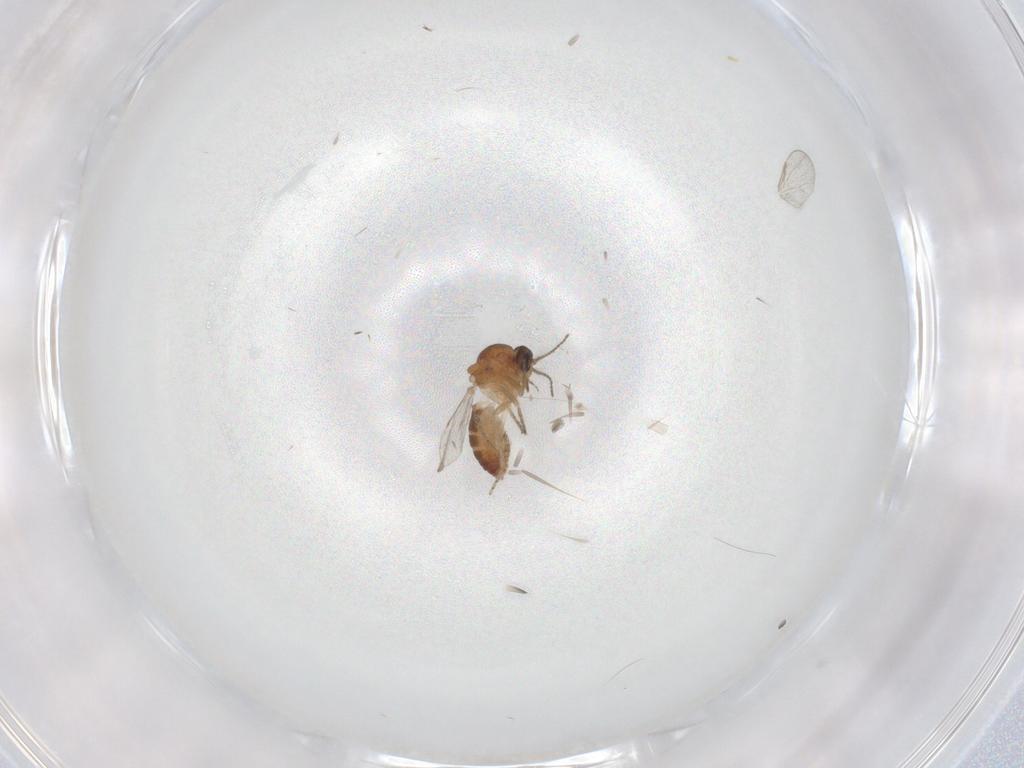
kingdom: Animalia
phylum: Arthropoda
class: Insecta
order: Diptera
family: Ceratopogonidae
